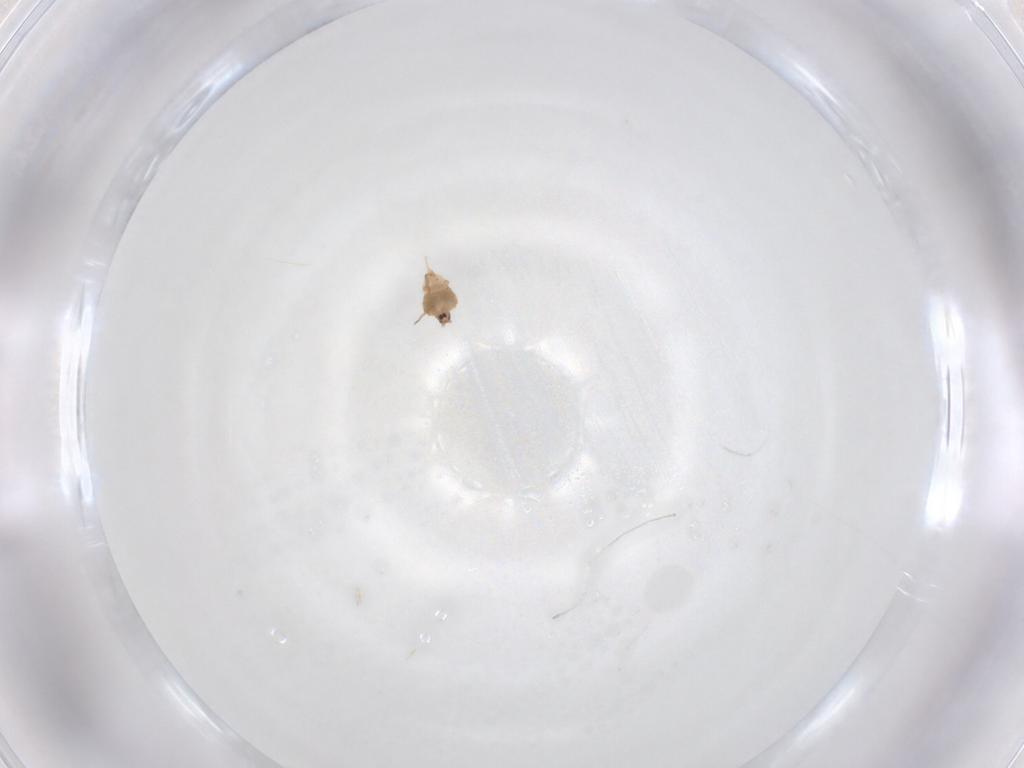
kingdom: Animalia
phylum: Arthropoda
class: Insecta
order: Hemiptera
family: Diaspididae
